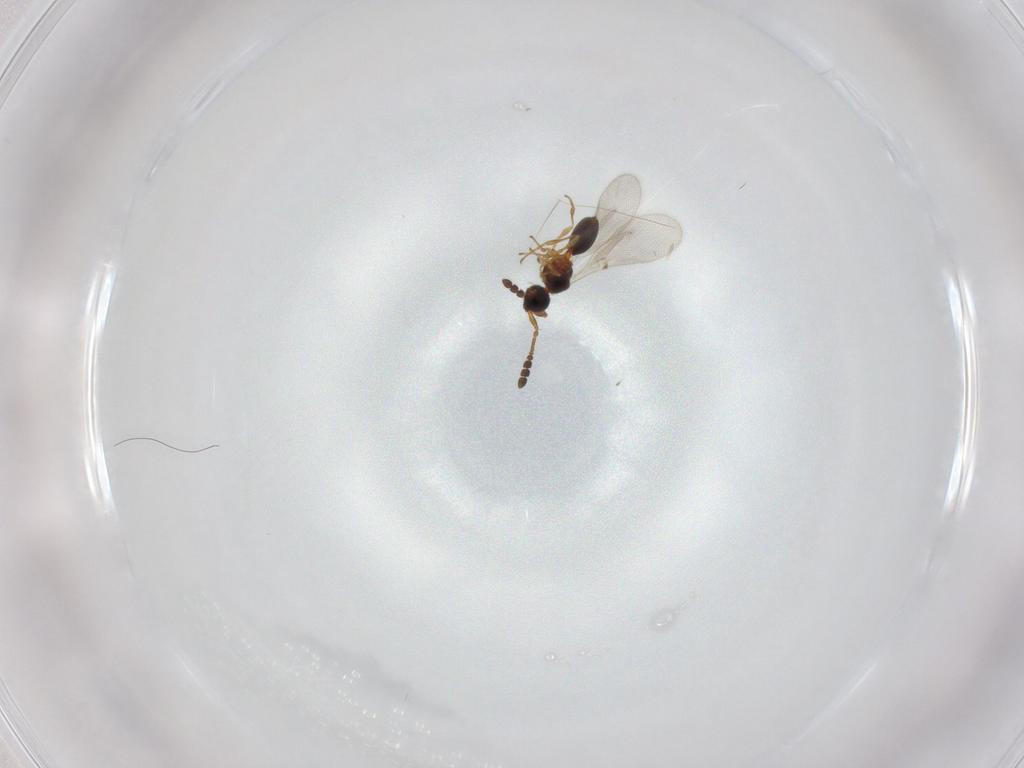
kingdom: Animalia
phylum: Arthropoda
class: Insecta
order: Hymenoptera
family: Diapriidae
